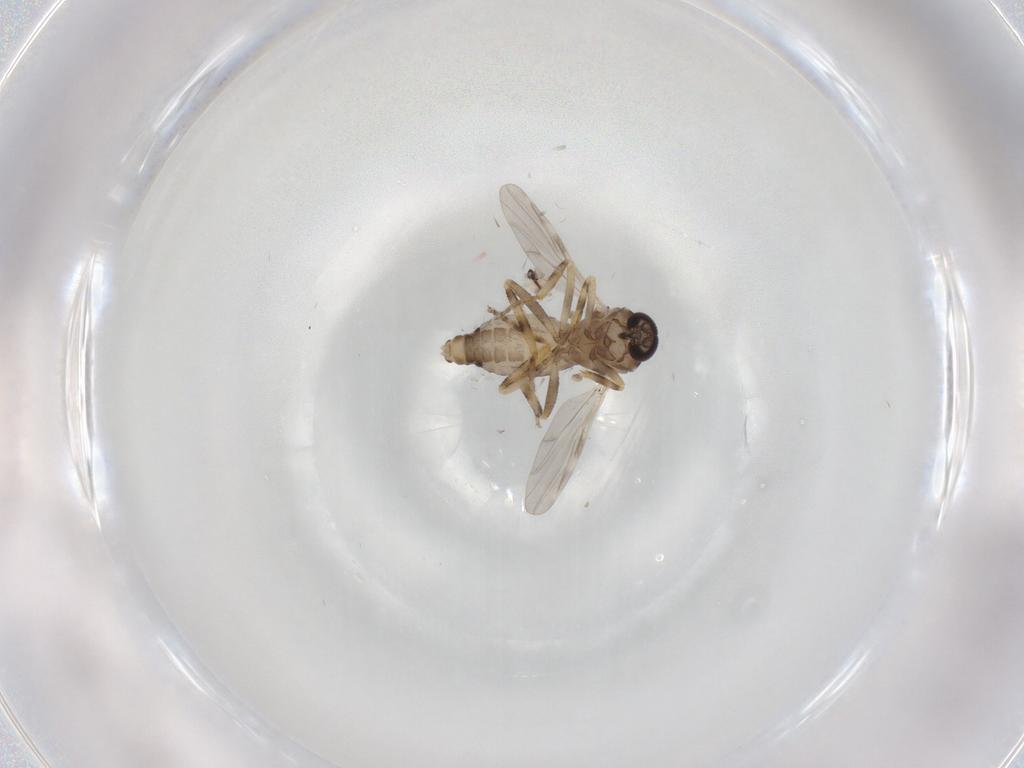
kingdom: Animalia
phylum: Arthropoda
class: Insecta
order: Diptera
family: Ceratopogonidae
